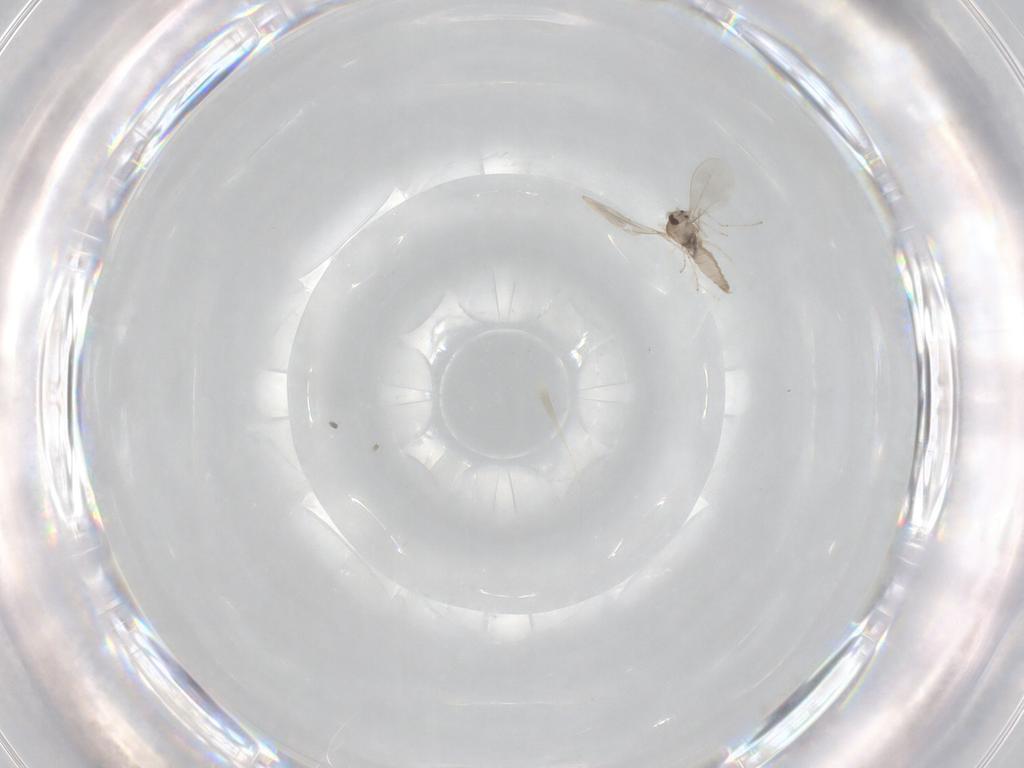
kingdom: Animalia
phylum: Arthropoda
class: Insecta
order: Diptera
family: Cecidomyiidae
